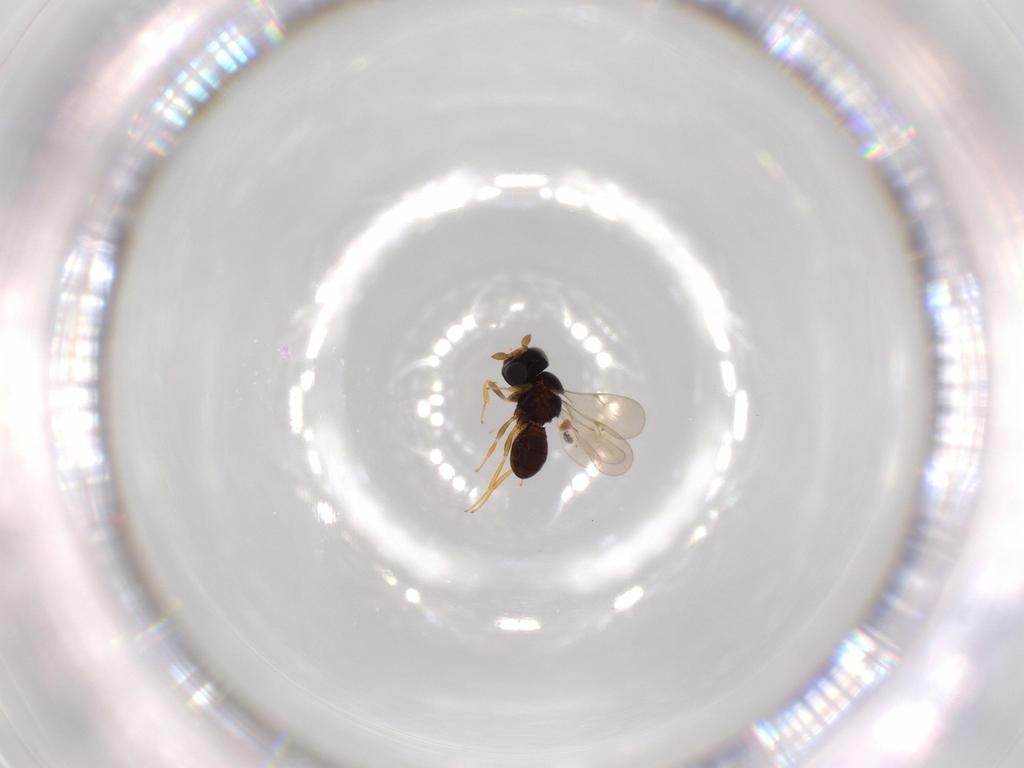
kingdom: Animalia
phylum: Arthropoda
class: Insecta
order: Hymenoptera
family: Scelionidae
